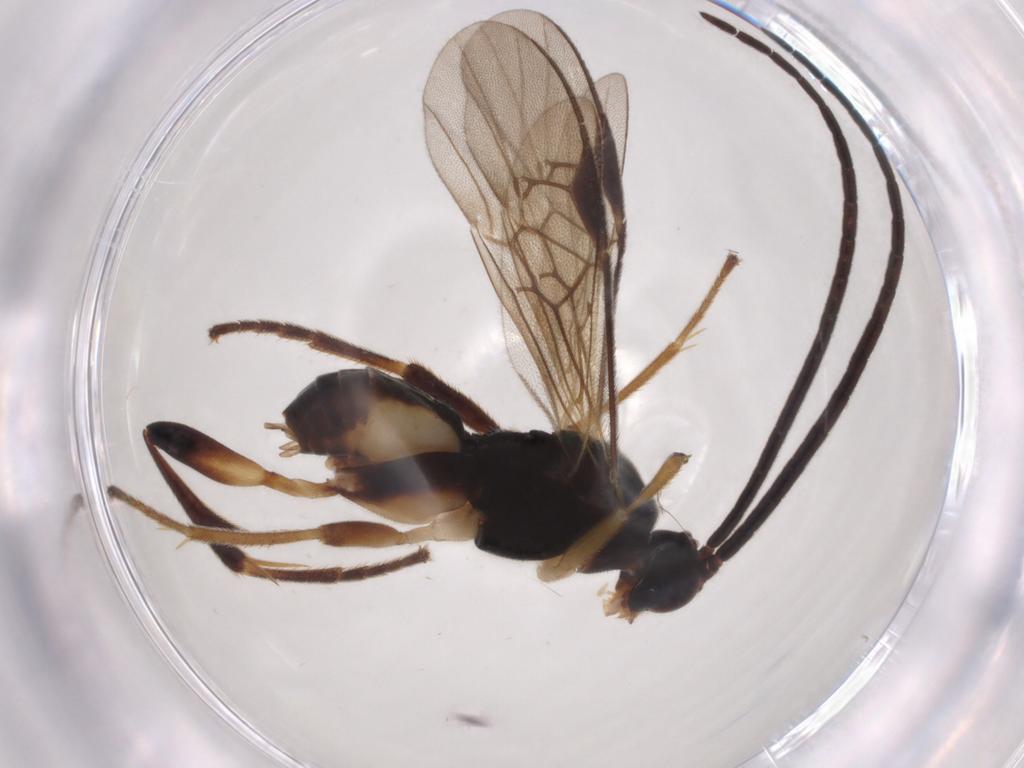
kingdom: Animalia
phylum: Arthropoda
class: Insecta
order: Hymenoptera
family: Braconidae
